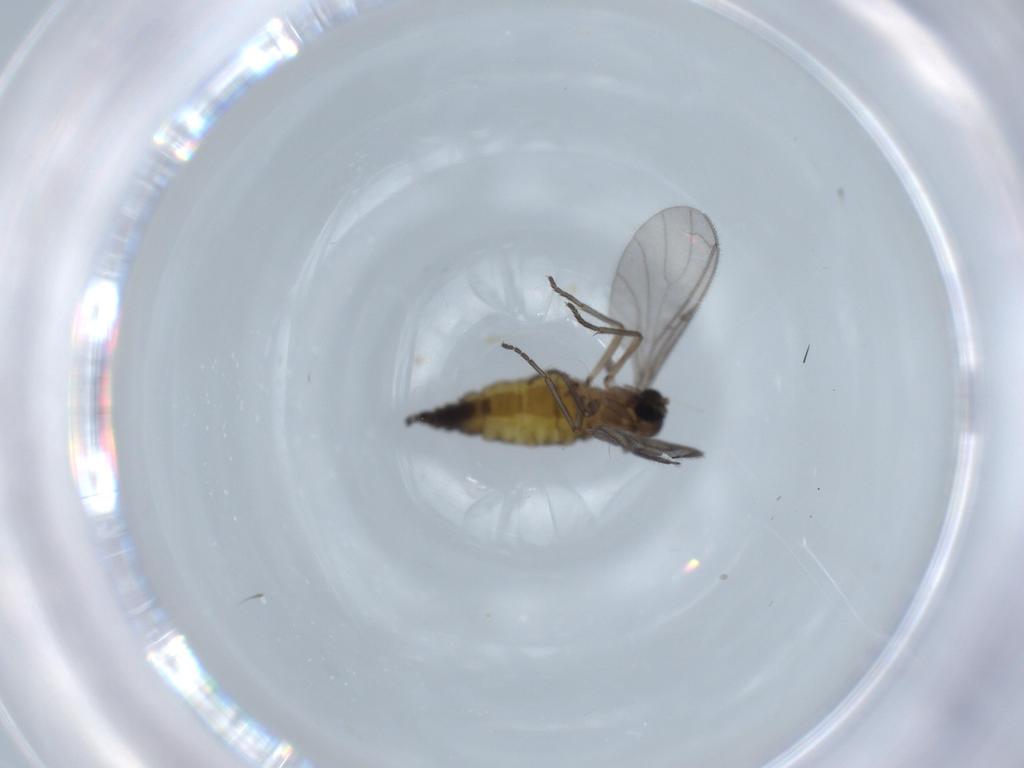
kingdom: Animalia
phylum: Arthropoda
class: Insecta
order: Diptera
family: Sciaridae
